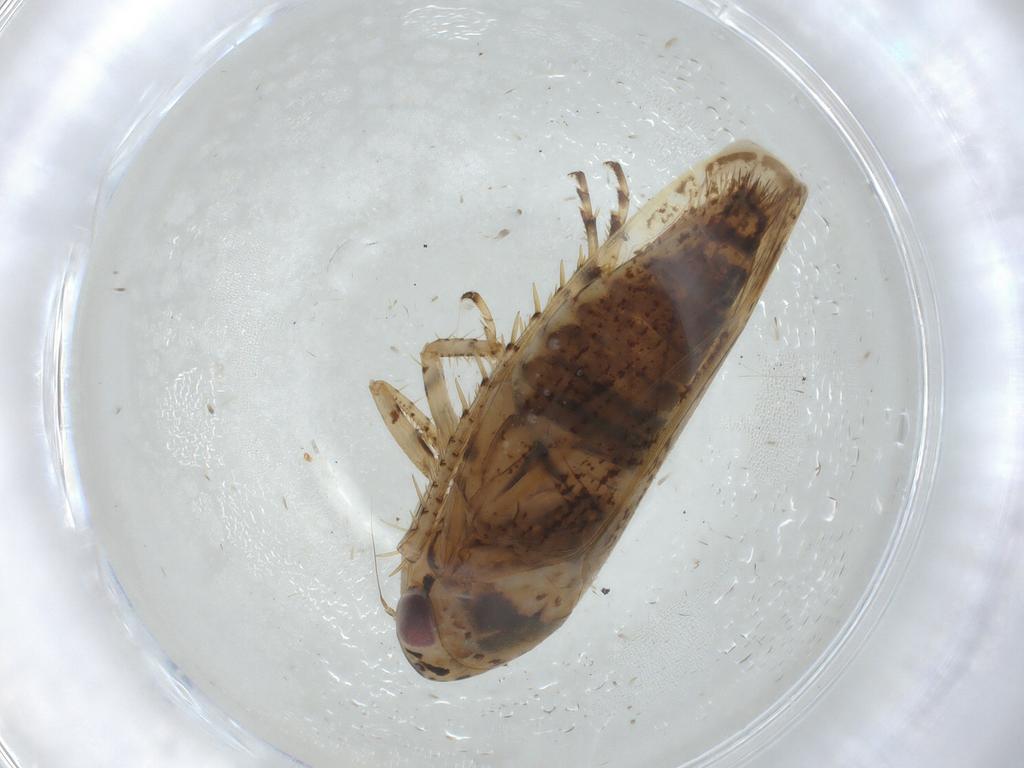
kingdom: Animalia
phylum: Arthropoda
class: Insecta
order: Hemiptera
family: Cicadellidae
